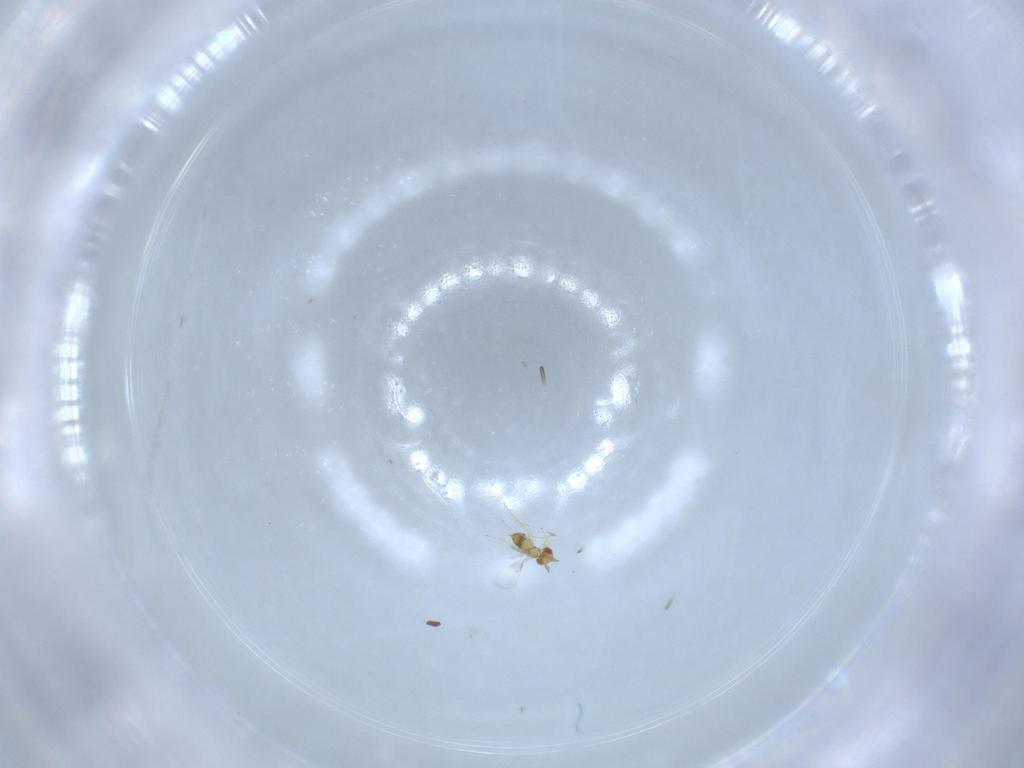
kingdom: Animalia
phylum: Arthropoda
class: Insecta
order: Hymenoptera
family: Trichogrammatidae
